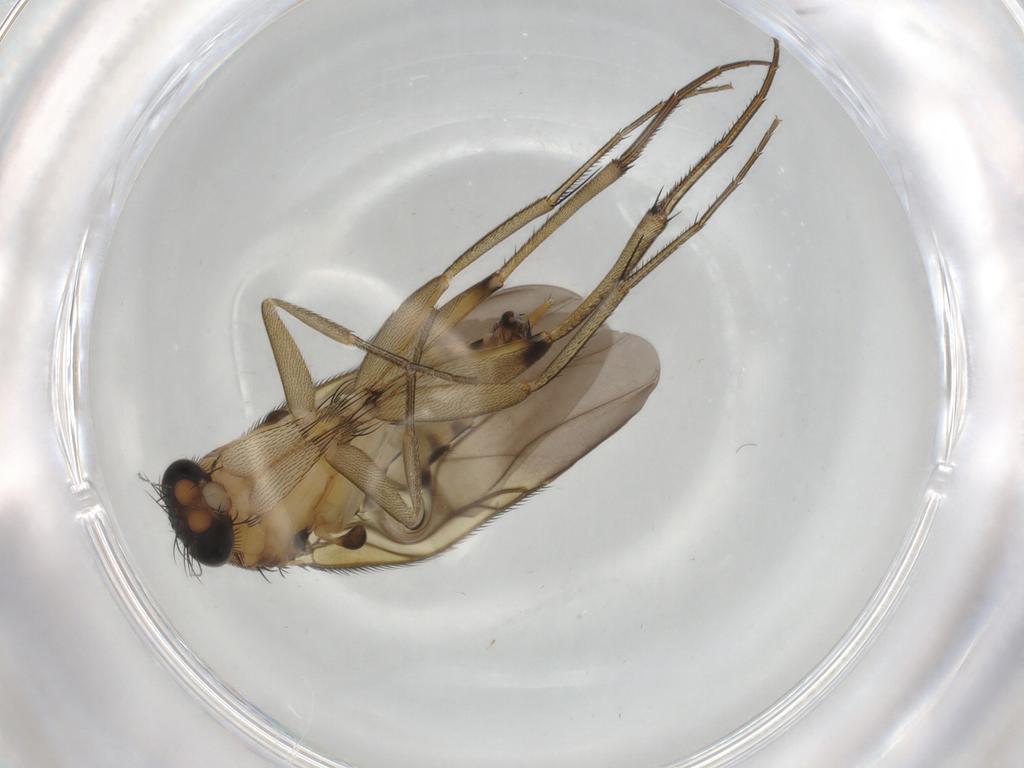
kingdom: Animalia
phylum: Arthropoda
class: Insecta
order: Diptera
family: Phoridae
